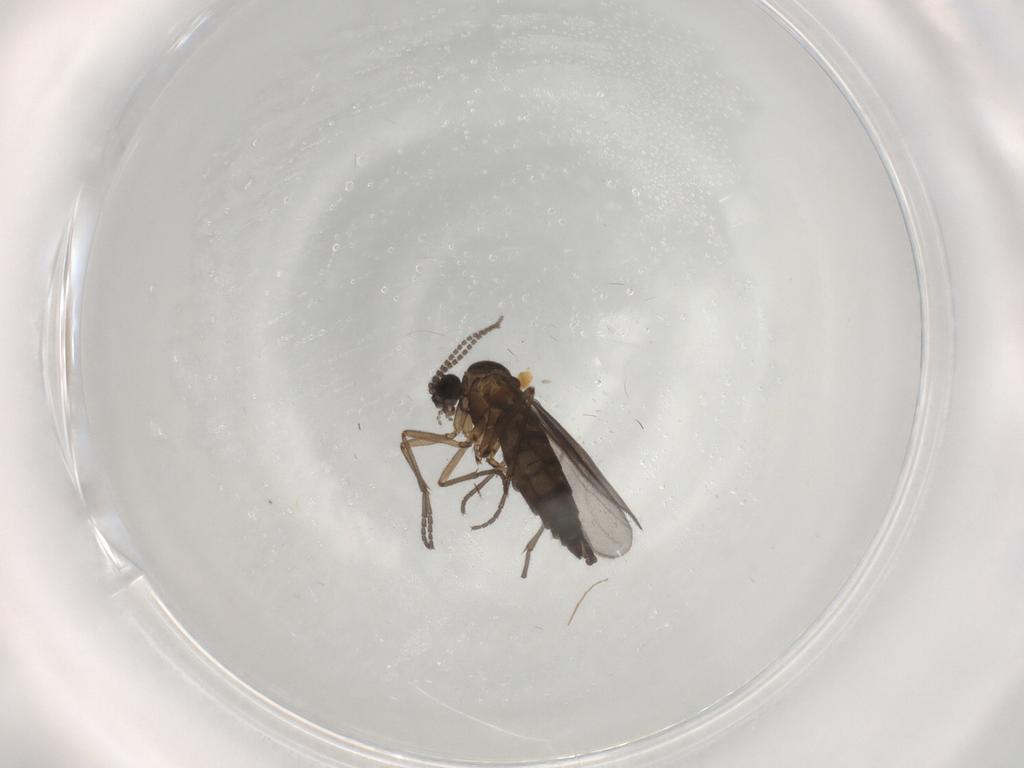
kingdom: Animalia
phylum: Arthropoda
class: Insecta
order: Diptera
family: Sciaridae
